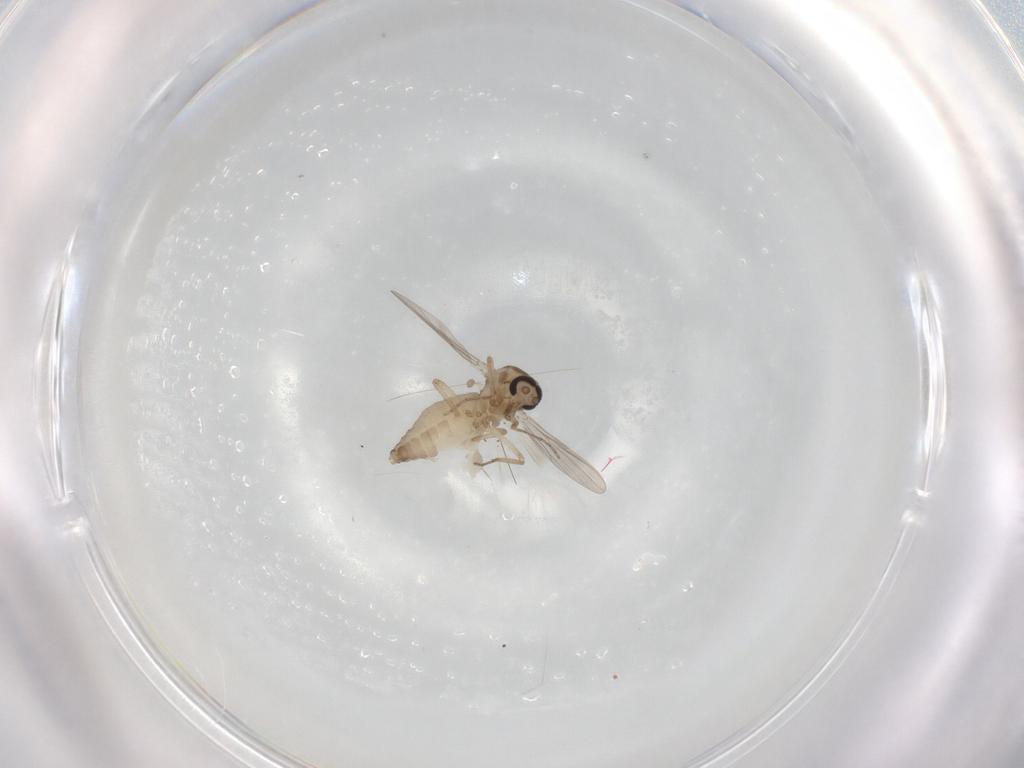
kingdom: Animalia
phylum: Arthropoda
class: Insecta
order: Diptera
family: Ceratopogonidae
